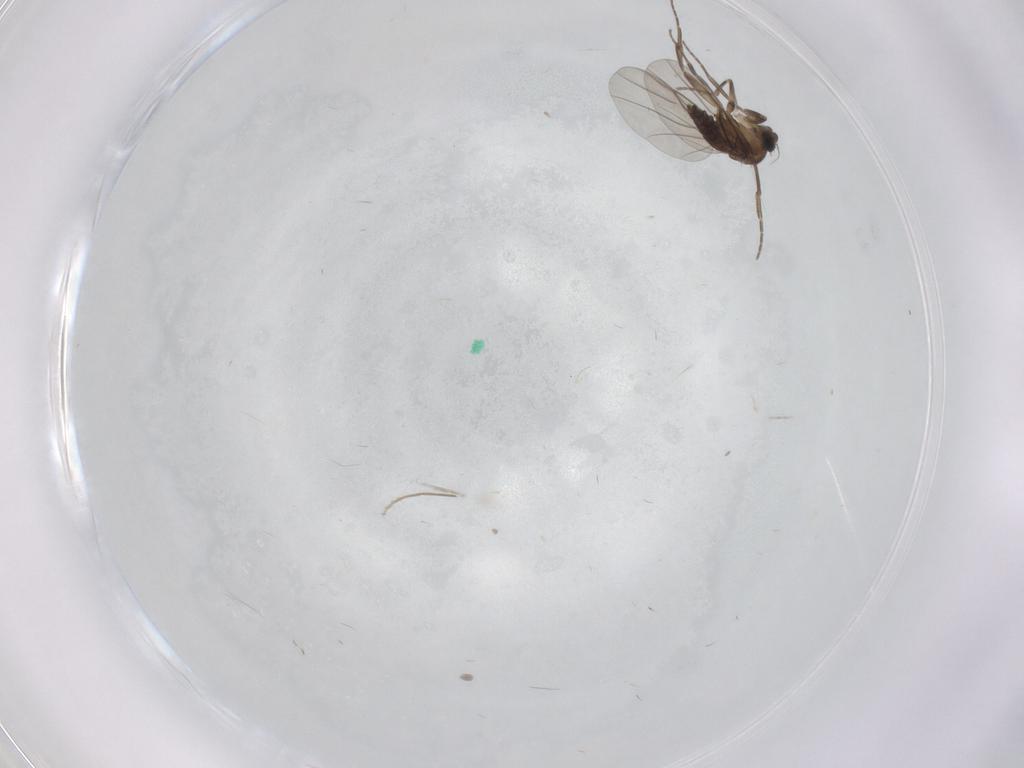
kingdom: Animalia
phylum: Arthropoda
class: Insecta
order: Diptera
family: Chironomidae
